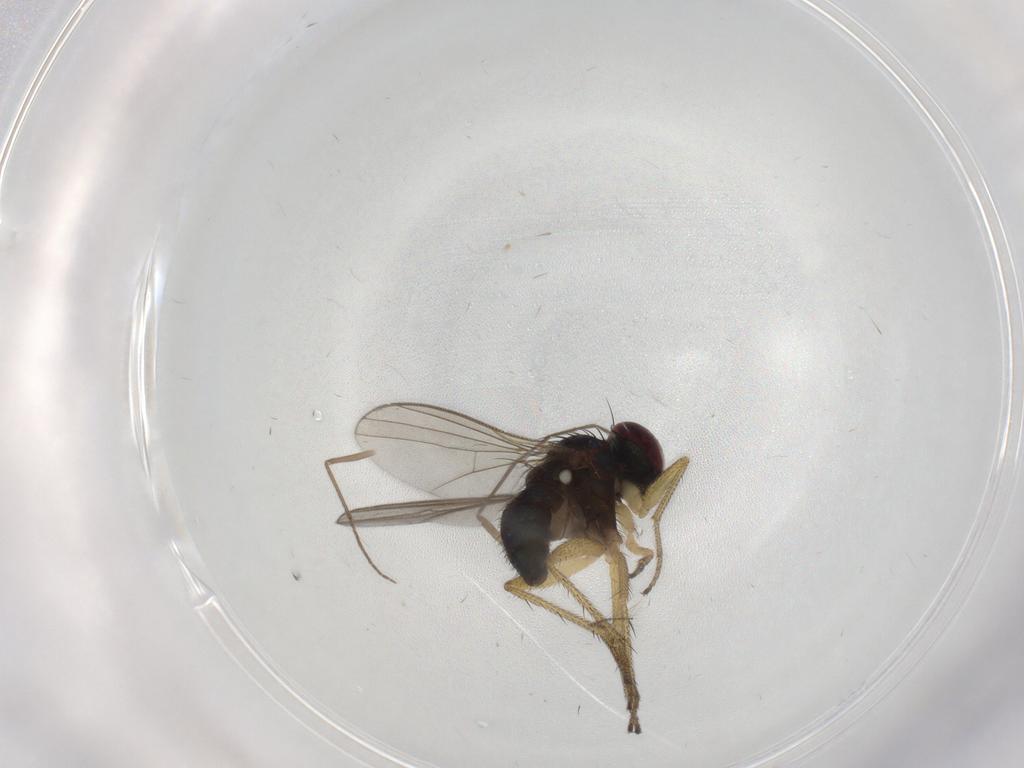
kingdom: Animalia
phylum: Arthropoda
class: Insecta
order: Diptera
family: Chironomidae
